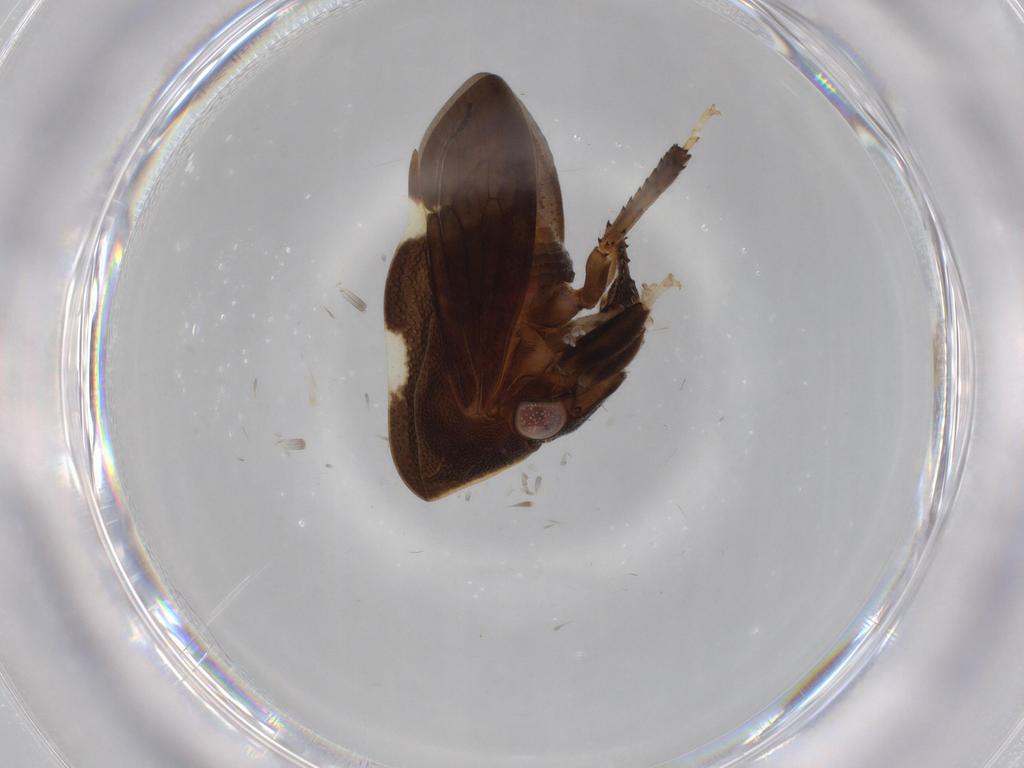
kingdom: Animalia
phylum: Arthropoda
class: Insecta
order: Hemiptera
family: Membracidae
